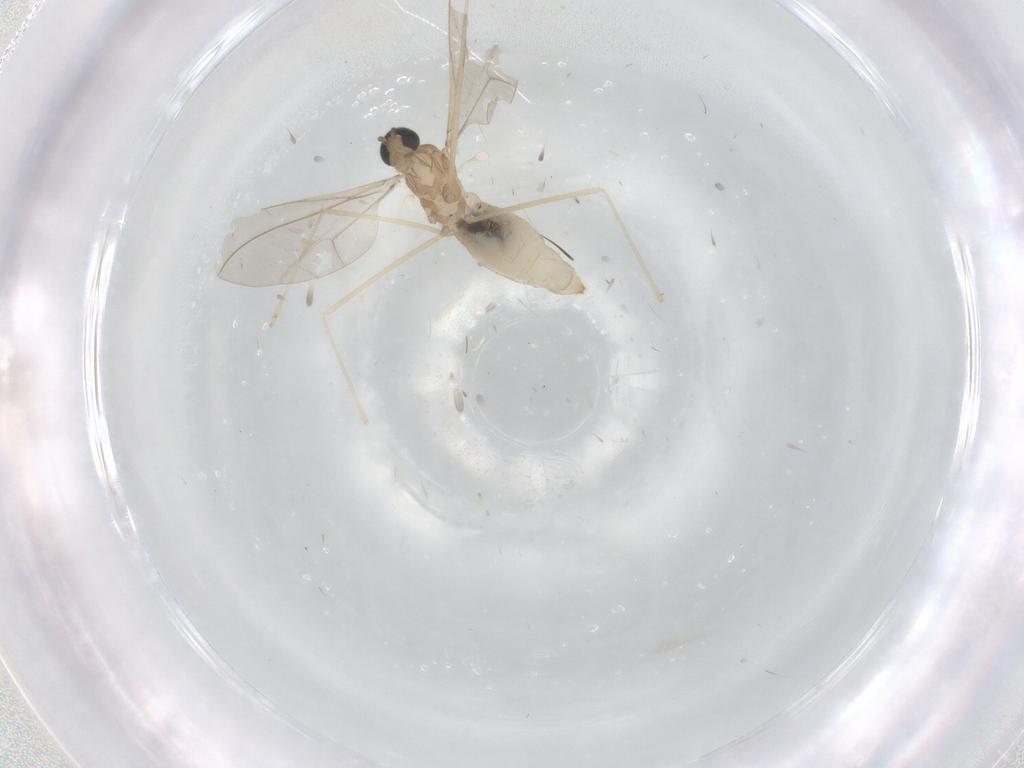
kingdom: Animalia
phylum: Arthropoda
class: Insecta
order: Diptera
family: Cecidomyiidae
